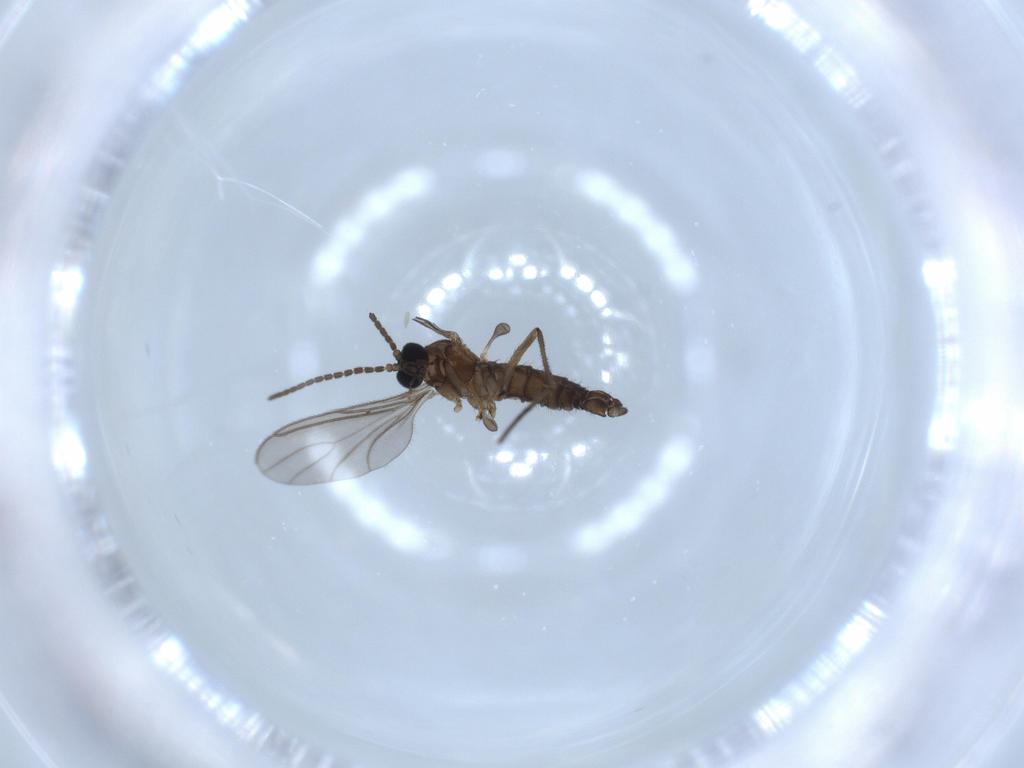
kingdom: Animalia
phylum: Arthropoda
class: Insecta
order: Diptera
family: Sciaridae
